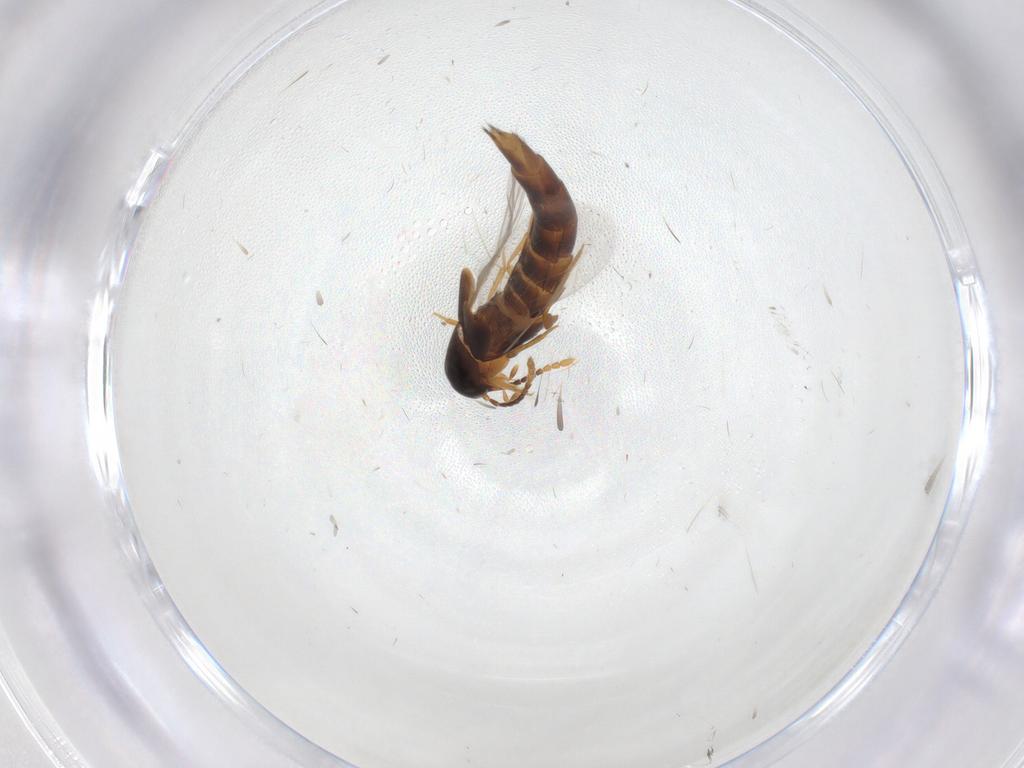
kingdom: Animalia
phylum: Arthropoda
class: Insecta
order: Coleoptera
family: Staphylinidae
